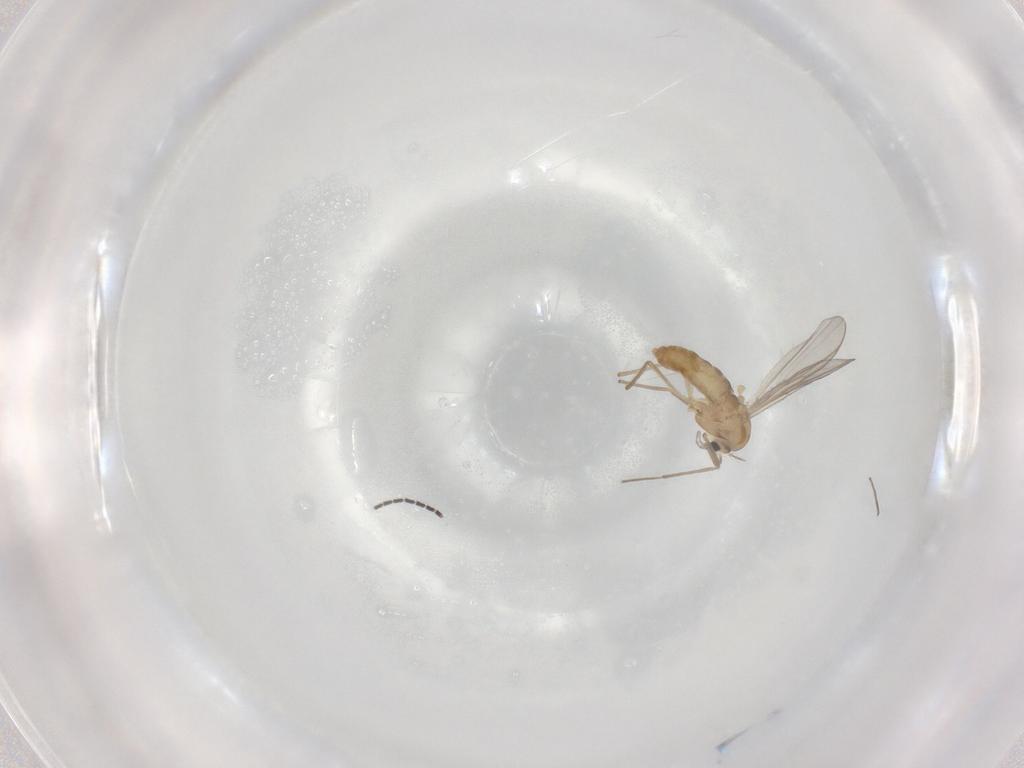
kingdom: Animalia
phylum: Arthropoda
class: Insecta
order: Diptera
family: Chironomidae
